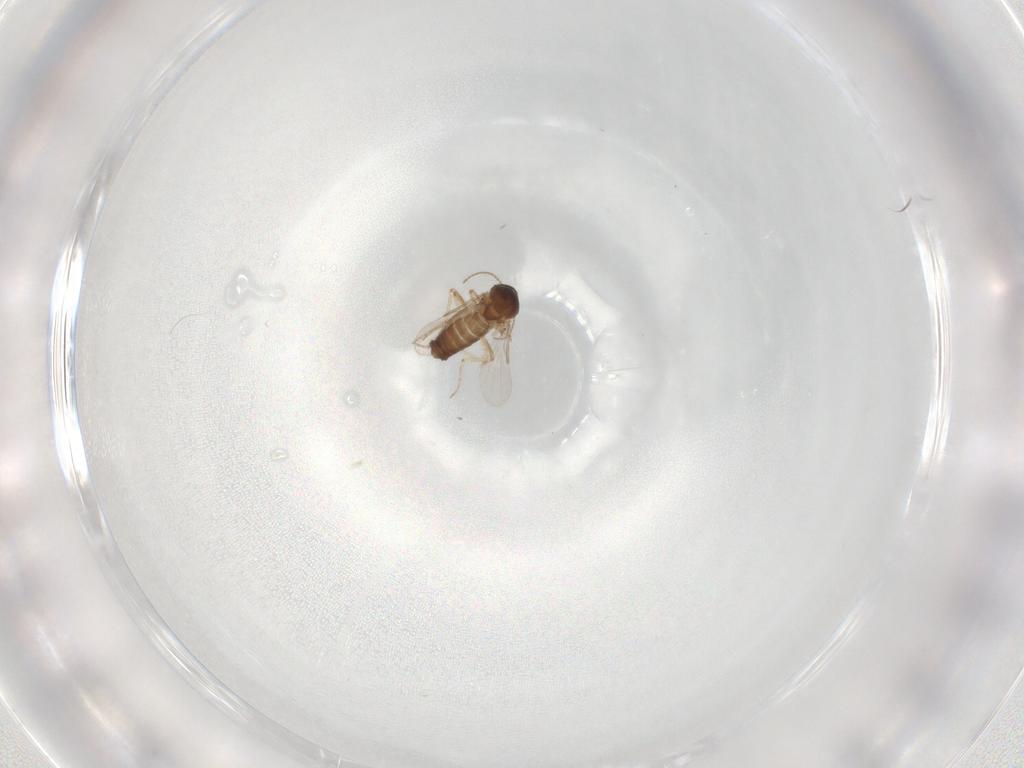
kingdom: Animalia
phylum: Arthropoda
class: Insecta
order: Diptera
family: Ceratopogonidae
